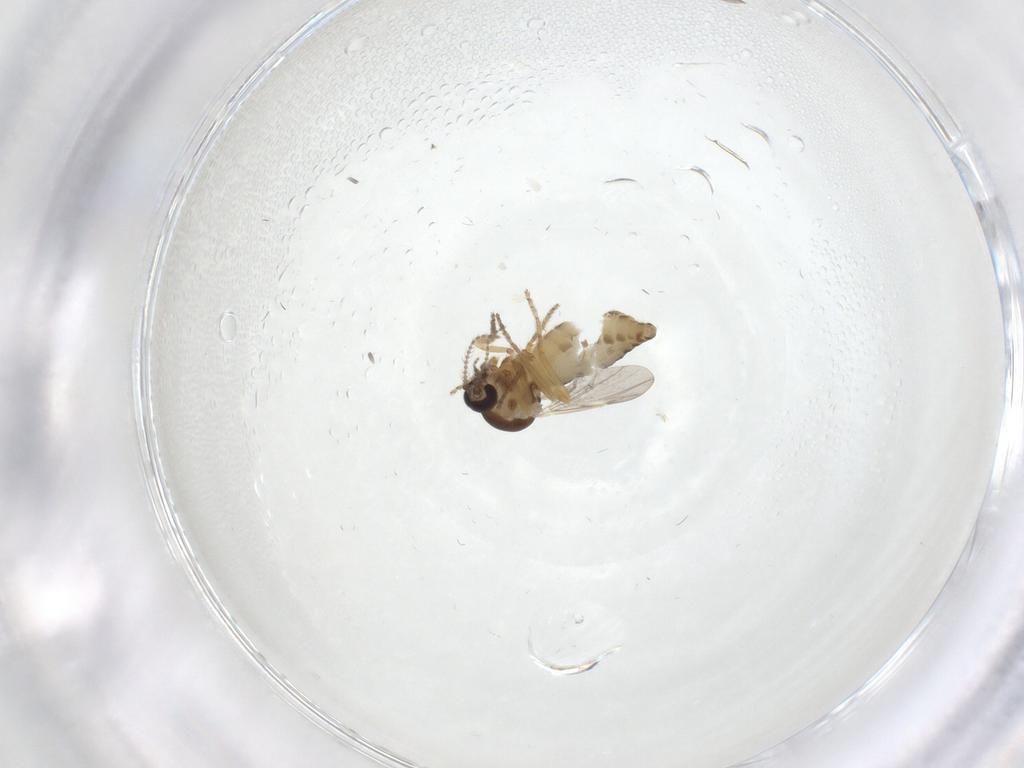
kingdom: Animalia
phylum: Arthropoda
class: Insecta
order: Diptera
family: Ceratopogonidae
